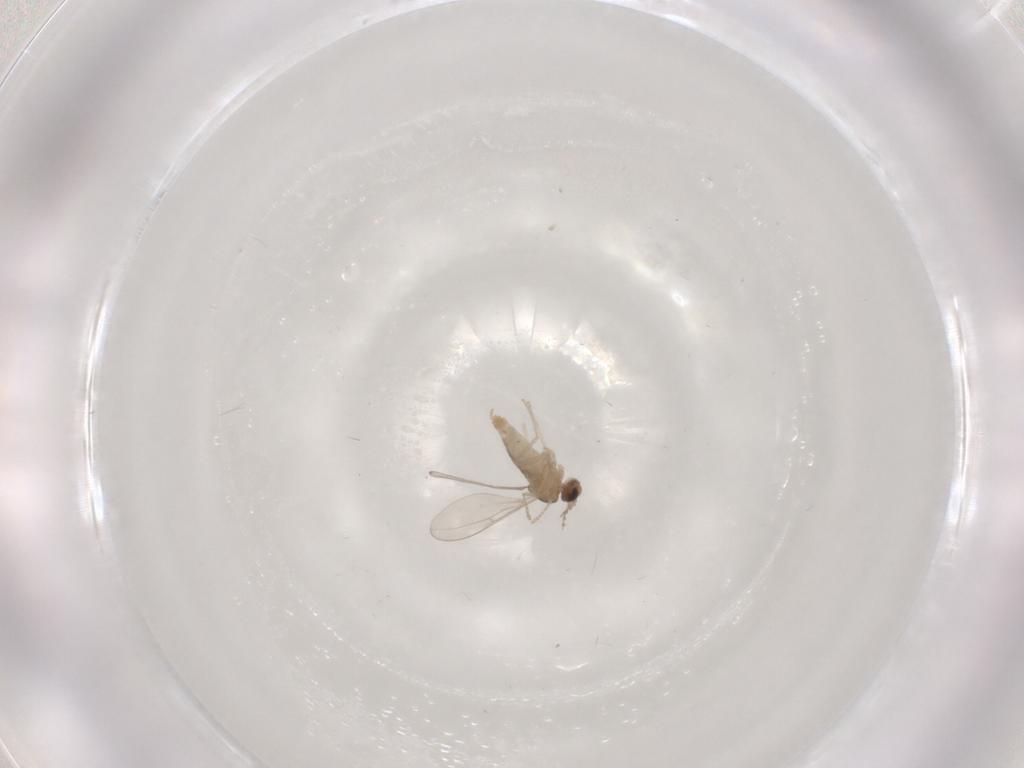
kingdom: Animalia
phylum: Arthropoda
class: Insecta
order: Diptera
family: Cecidomyiidae
